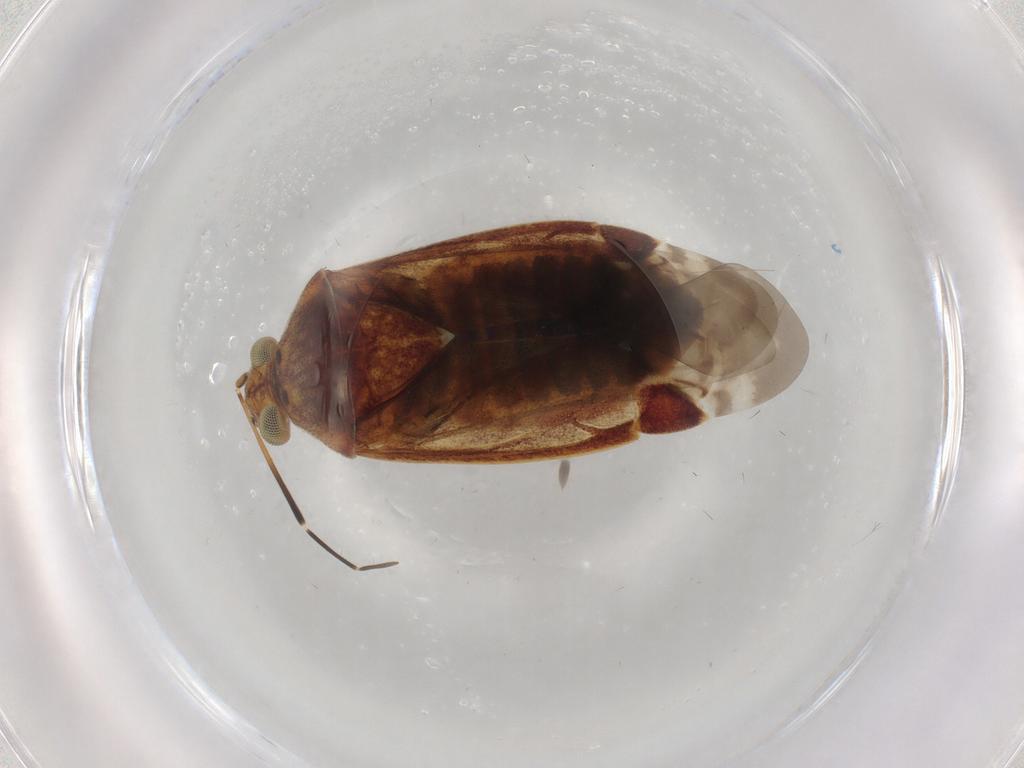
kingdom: Animalia
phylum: Arthropoda
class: Insecta
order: Hemiptera
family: Miridae
